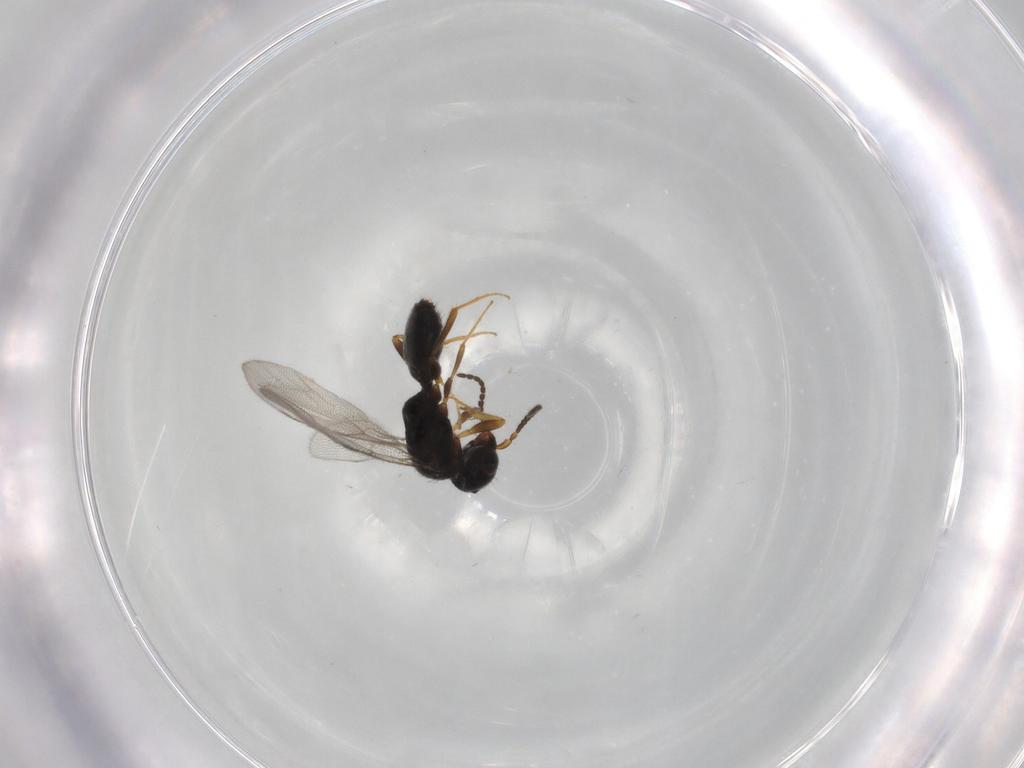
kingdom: Animalia
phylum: Arthropoda
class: Insecta
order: Hymenoptera
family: Bethylidae
